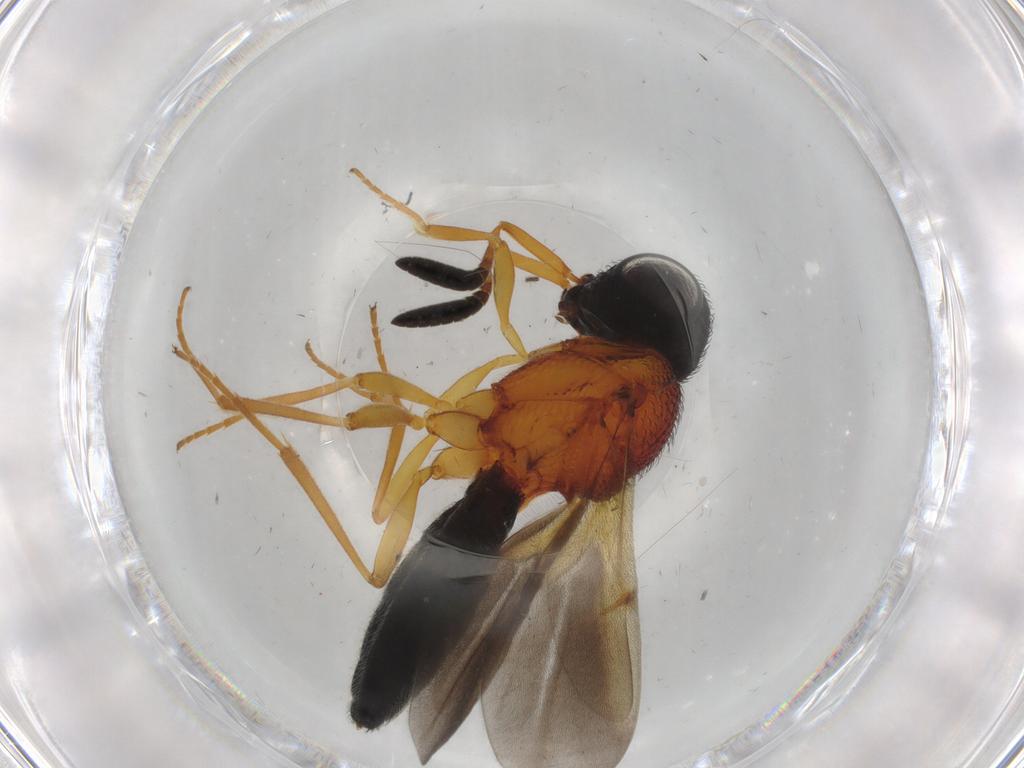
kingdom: Animalia
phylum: Arthropoda
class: Insecta
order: Hymenoptera
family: Scelionidae
